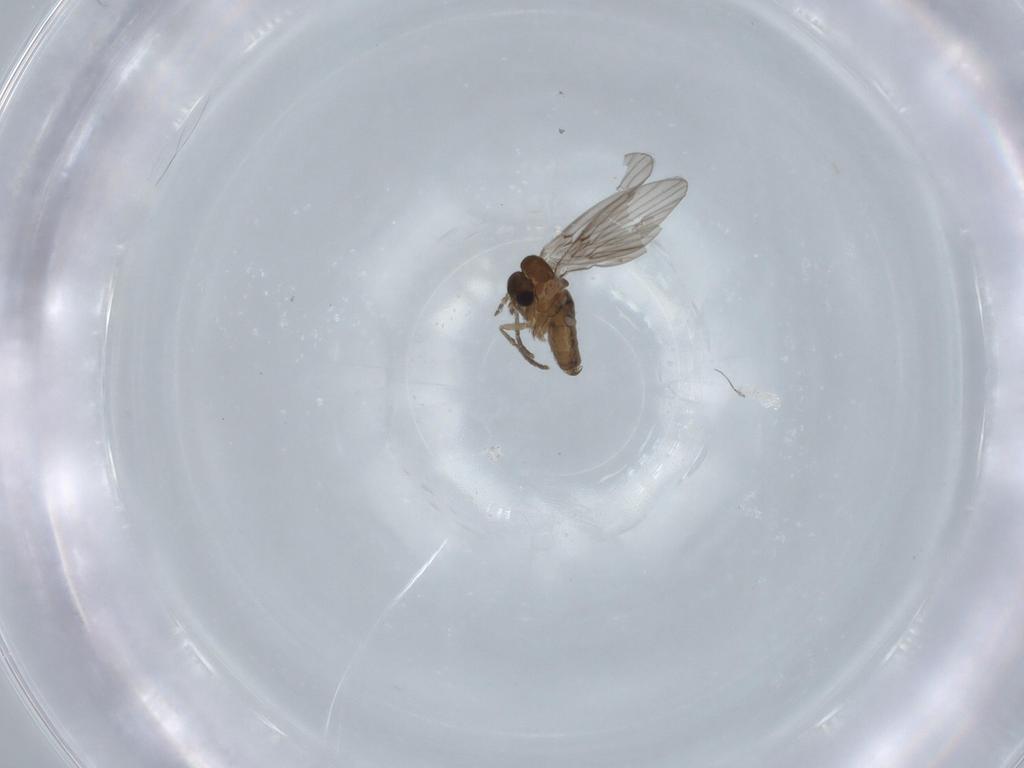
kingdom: Animalia
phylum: Arthropoda
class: Insecta
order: Diptera
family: Psychodidae
